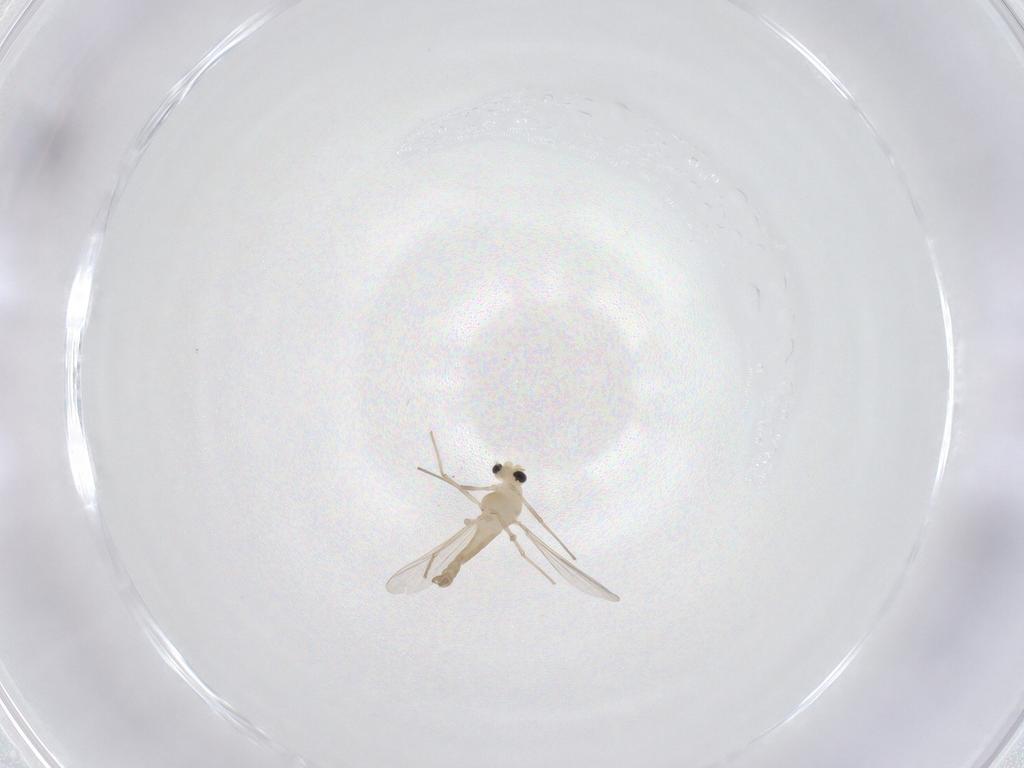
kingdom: Animalia
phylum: Arthropoda
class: Insecta
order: Diptera
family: Cecidomyiidae
